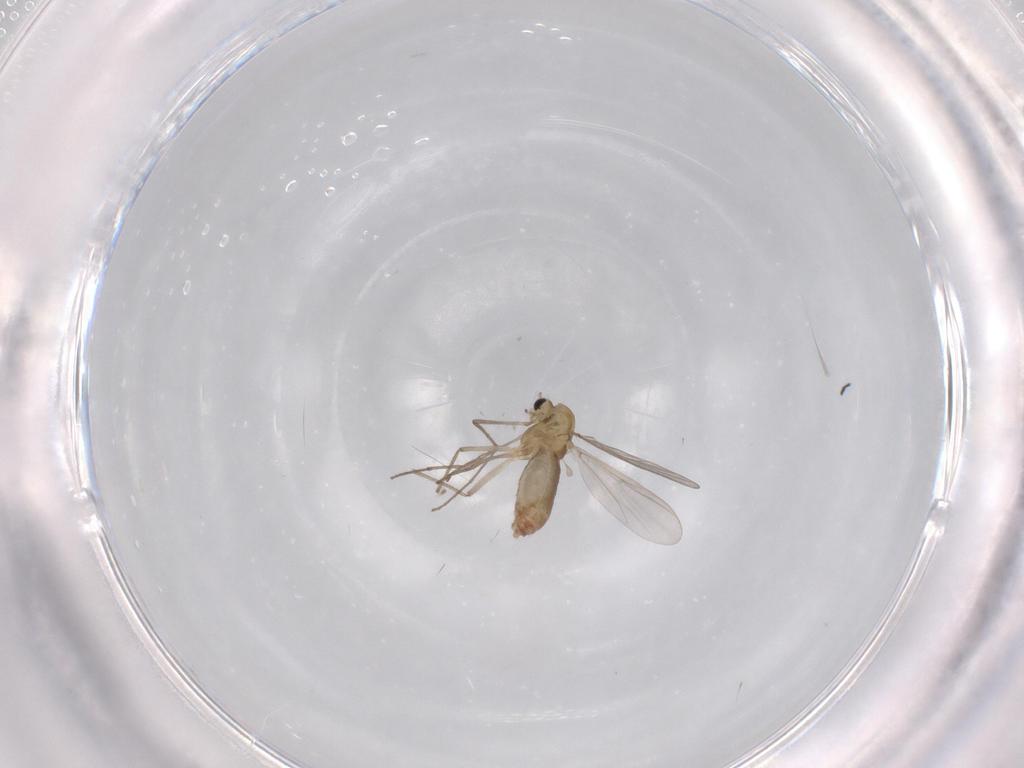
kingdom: Animalia
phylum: Arthropoda
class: Insecta
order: Diptera
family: Chironomidae
